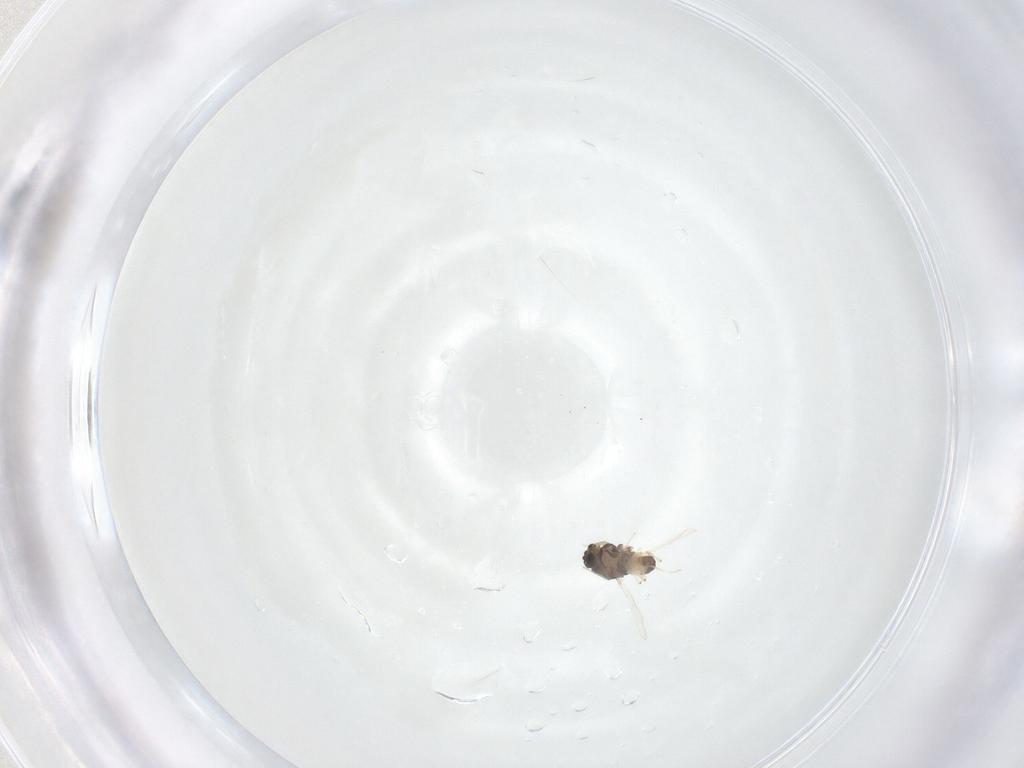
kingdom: Animalia
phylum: Arthropoda
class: Insecta
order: Diptera
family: Chironomidae
